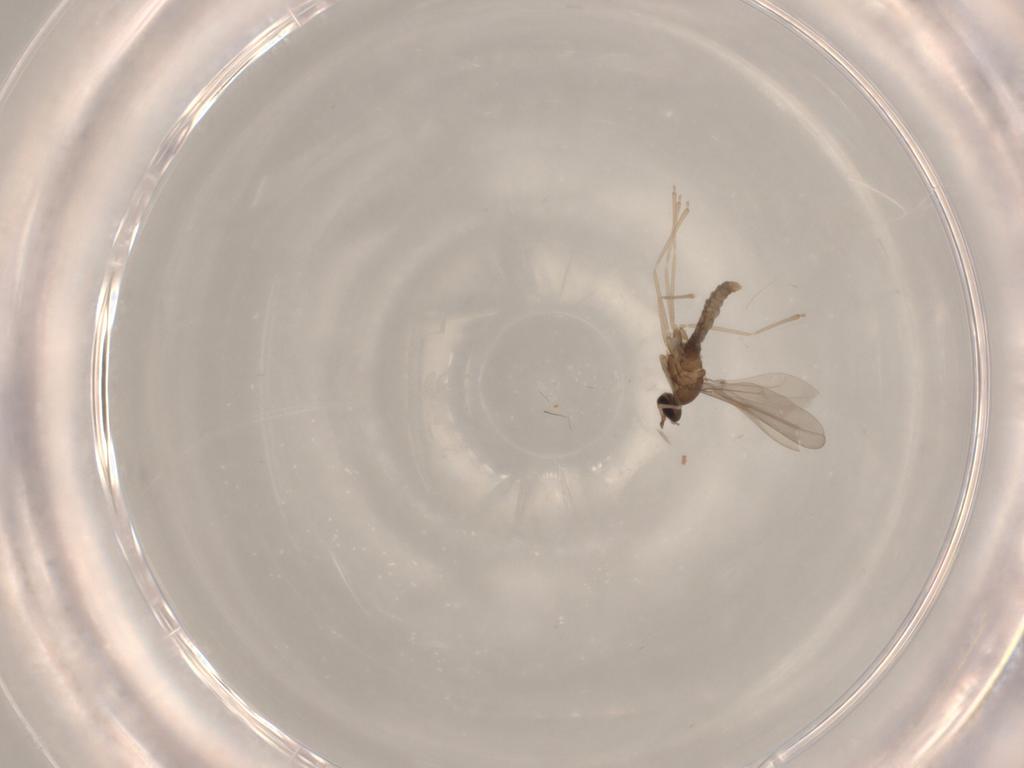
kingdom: Animalia
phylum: Arthropoda
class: Insecta
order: Diptera
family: Cecidomyiidae
